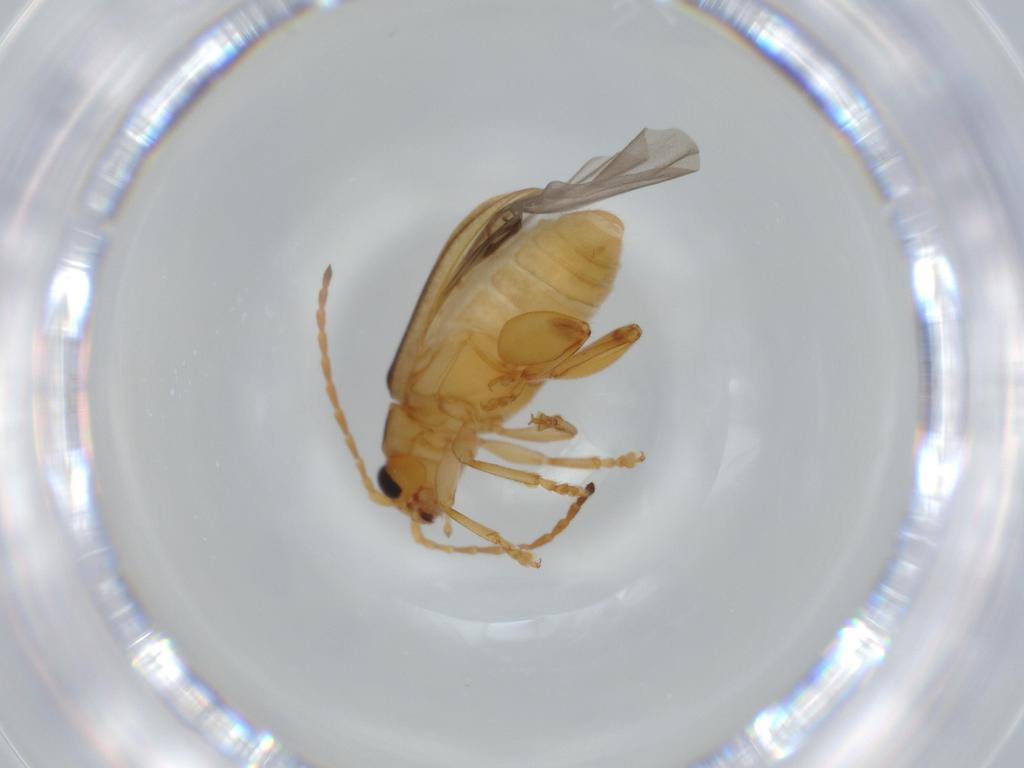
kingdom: Animalia
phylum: Arthropoda
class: Insecta
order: Coleoptera
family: Chrysomelidae
